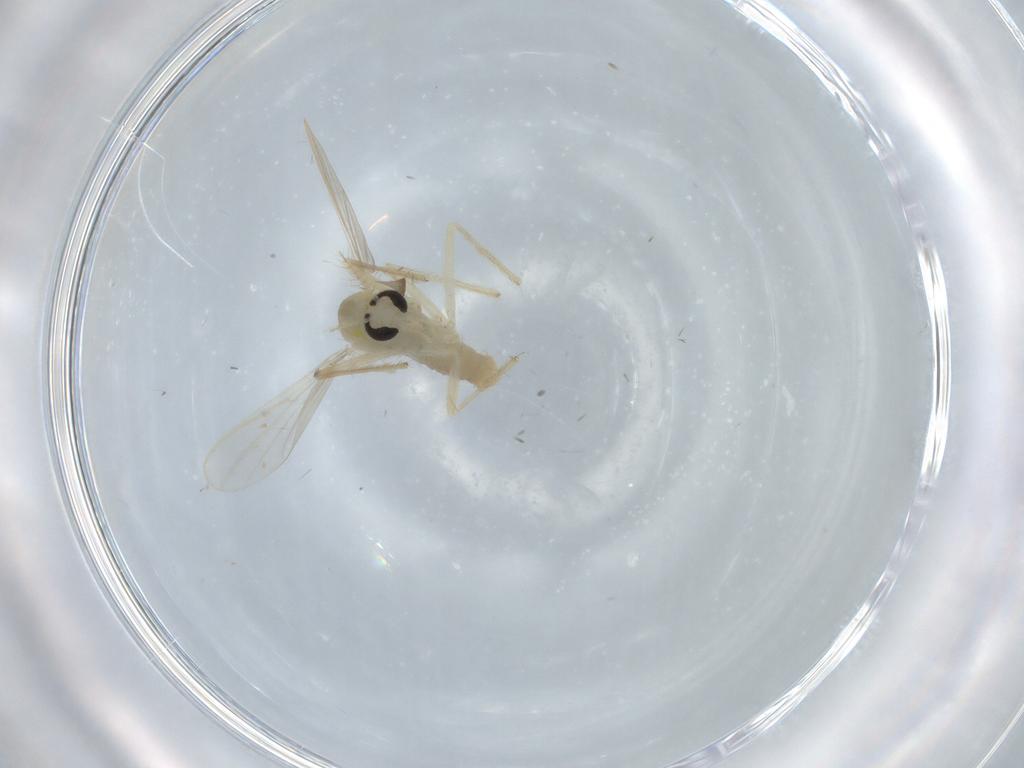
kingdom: Animalia
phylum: Arthropoda
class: Insecta
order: Diptera
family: Chironomidae
